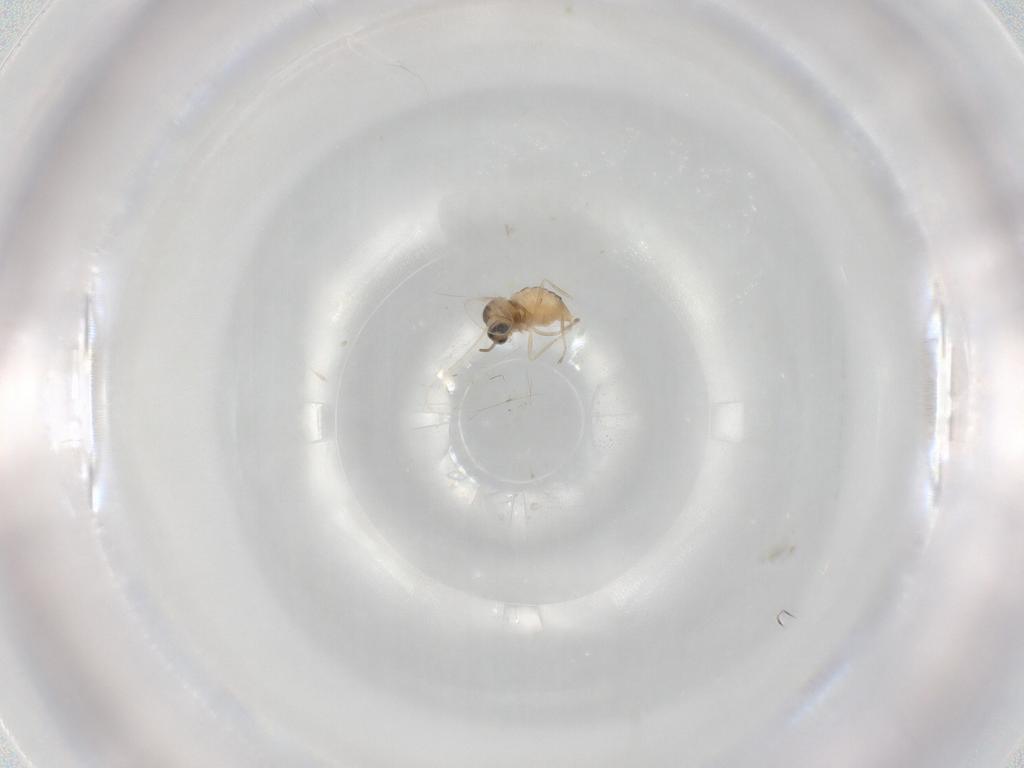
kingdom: Animalia
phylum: Arthropoda
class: Insecta
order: Diptera
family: Cecidomyiidae
